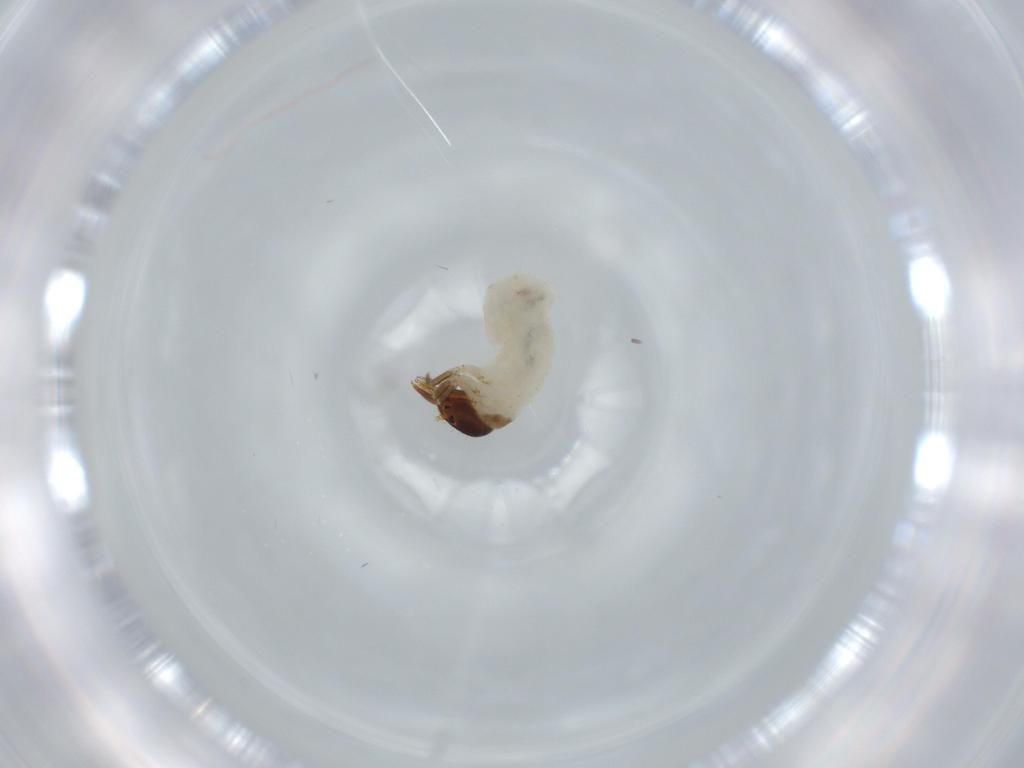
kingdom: Animalia
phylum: Arthropoda
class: Insecta
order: Coleoptera
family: Chrysomelidae
